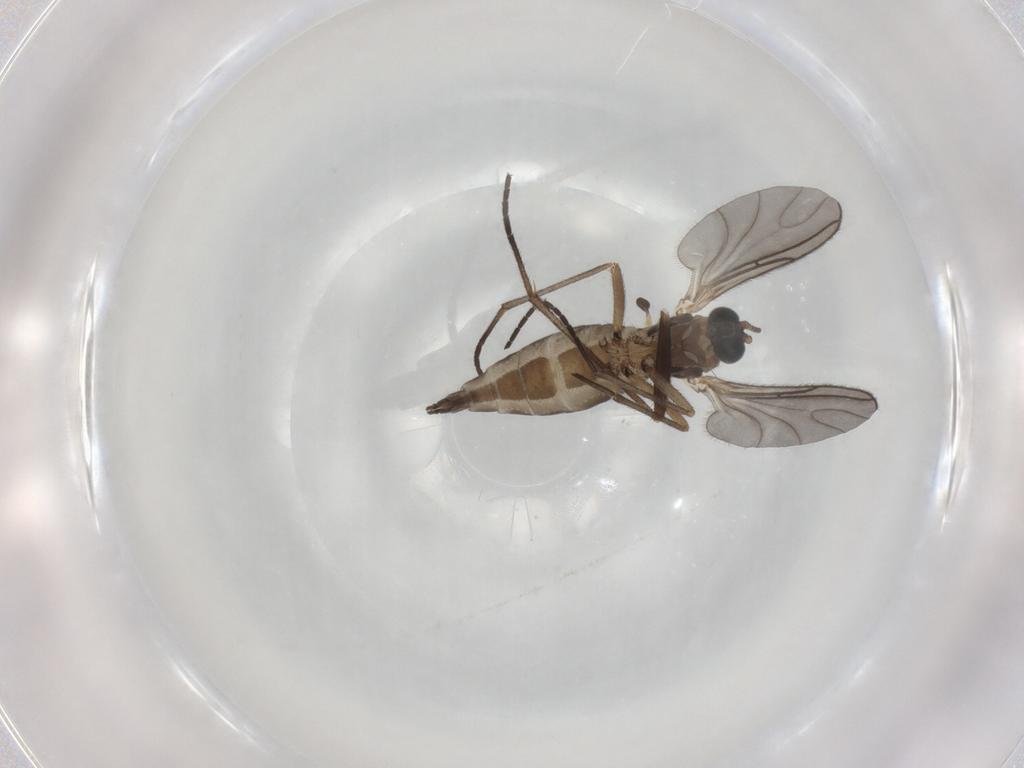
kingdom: Animalia
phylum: Arthropoda
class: Insecta
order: Diptera
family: Sciaridae
